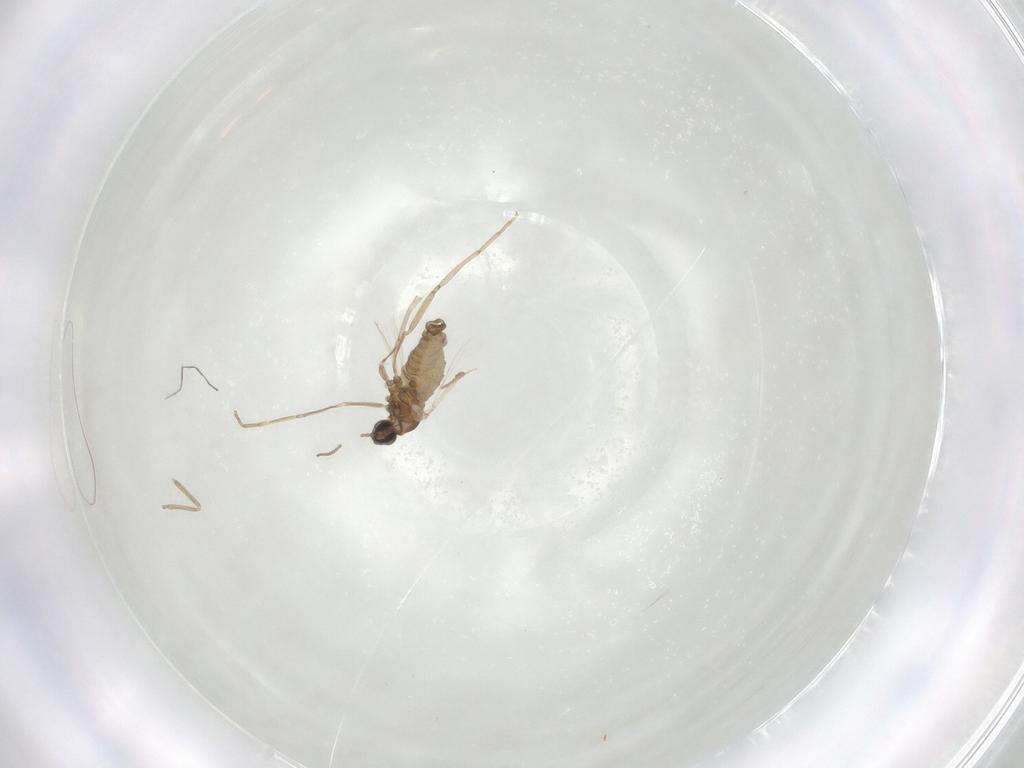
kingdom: Animalia
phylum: Arthropoda
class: Insecta
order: Diptera
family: Cecidomyiidae
